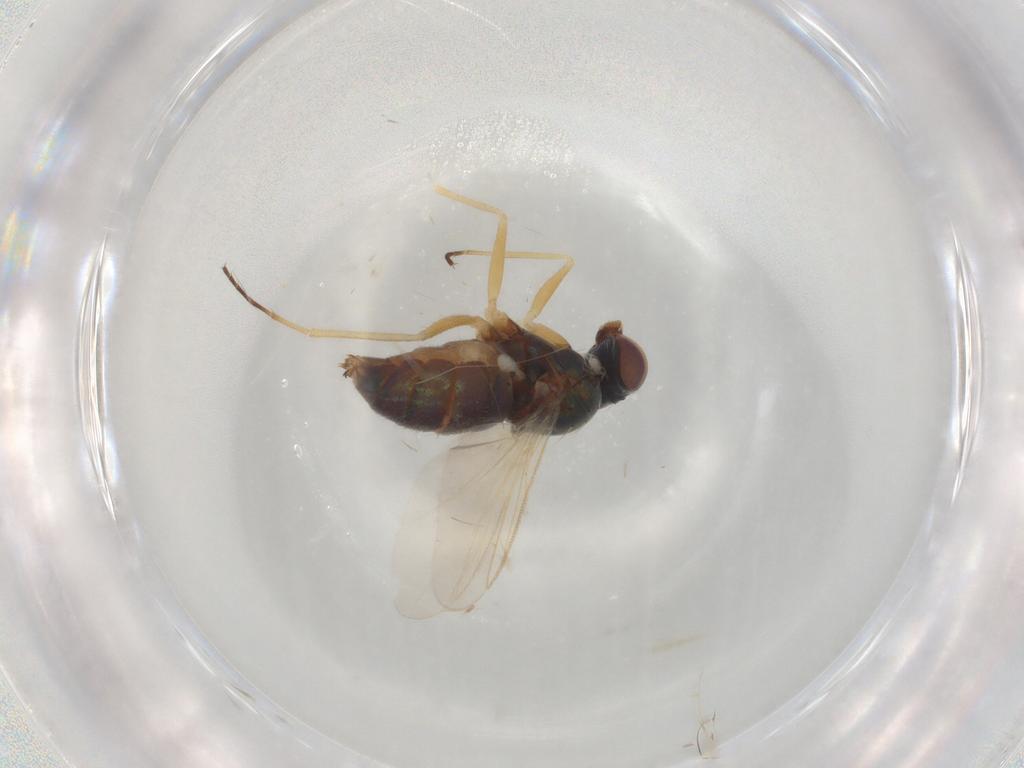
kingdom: Animalia
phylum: Arthropoda
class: Insecta
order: Diptera
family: Dolichopodidae
